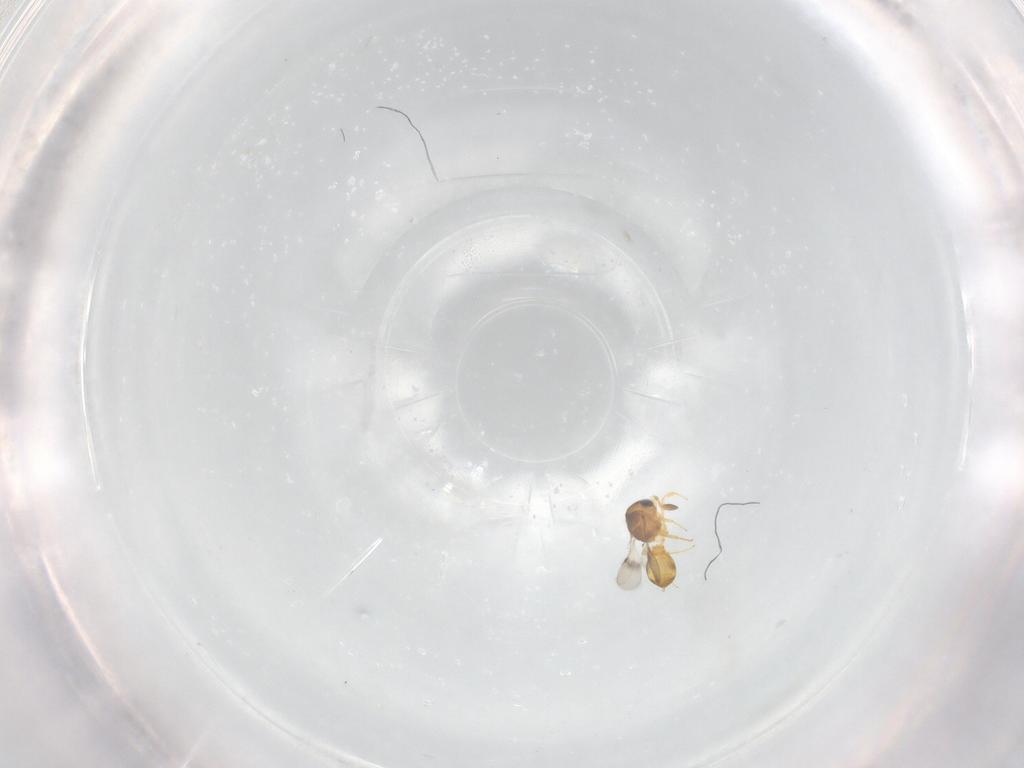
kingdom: Animalia
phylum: Arthropoda
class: Insecta
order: Hymenoptera
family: Scelionidae
